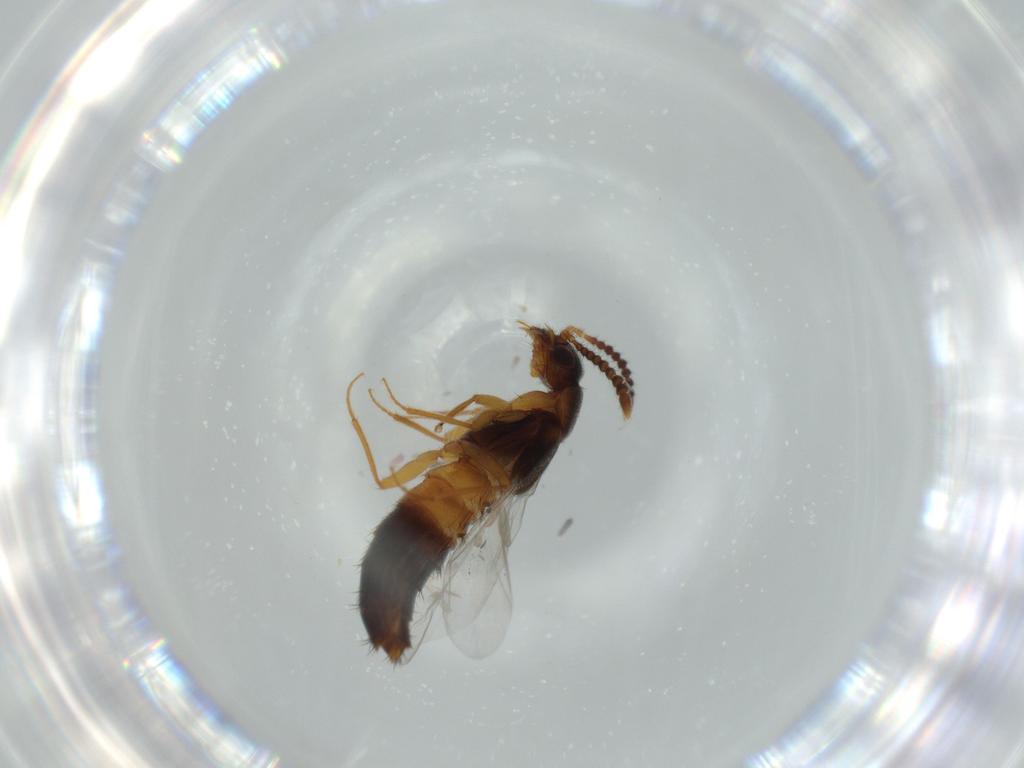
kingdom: Animalia
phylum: Arthropoda
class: Insecta
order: Coleoptera
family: Staphylinidae
